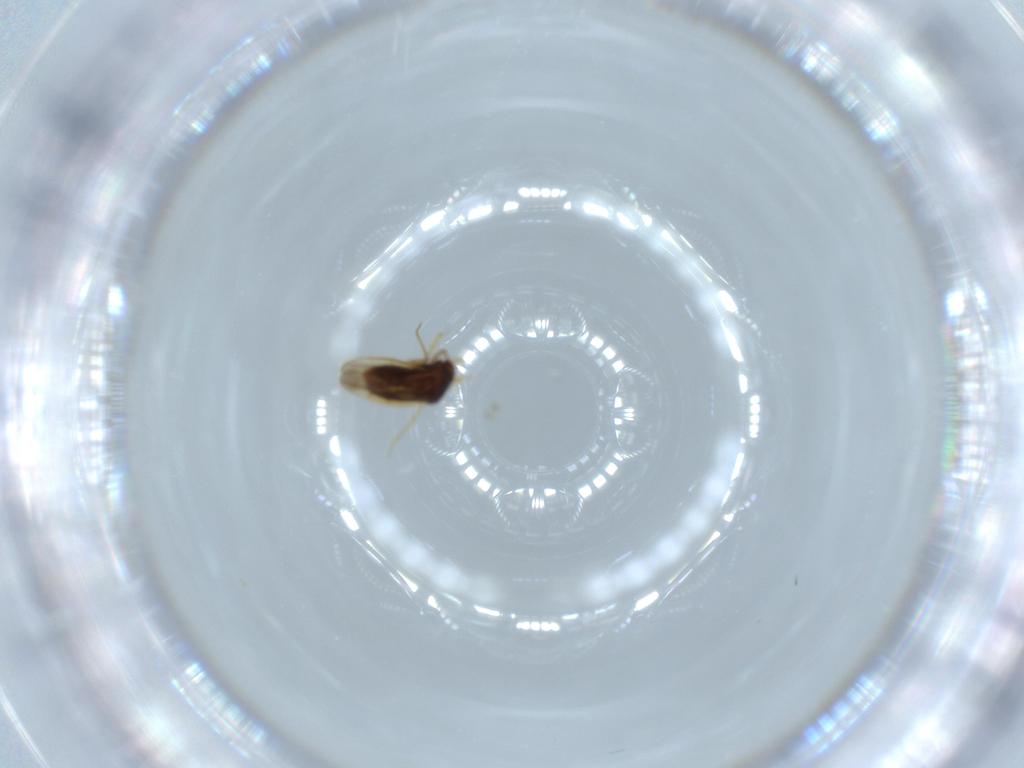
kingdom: Animalia
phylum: Arthropoda
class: Insecta
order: Hemiptera
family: Schizopteridae
